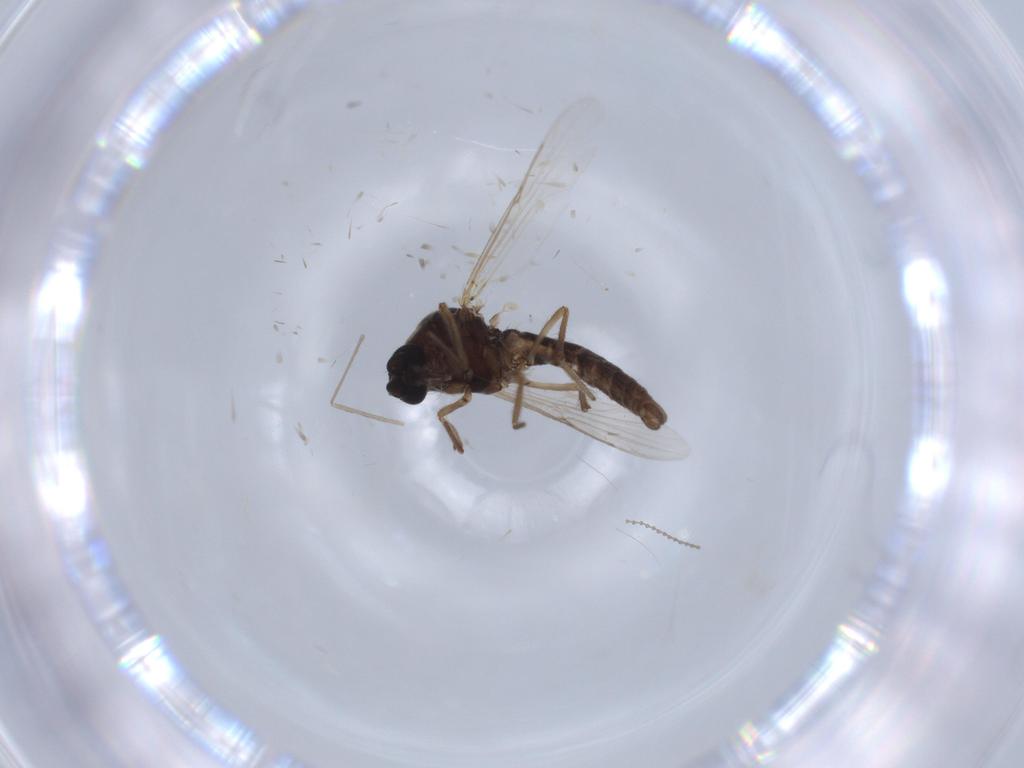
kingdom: Animalia
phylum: Arthropoda
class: Insecta
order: Diptera
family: Ceratopogonidae
